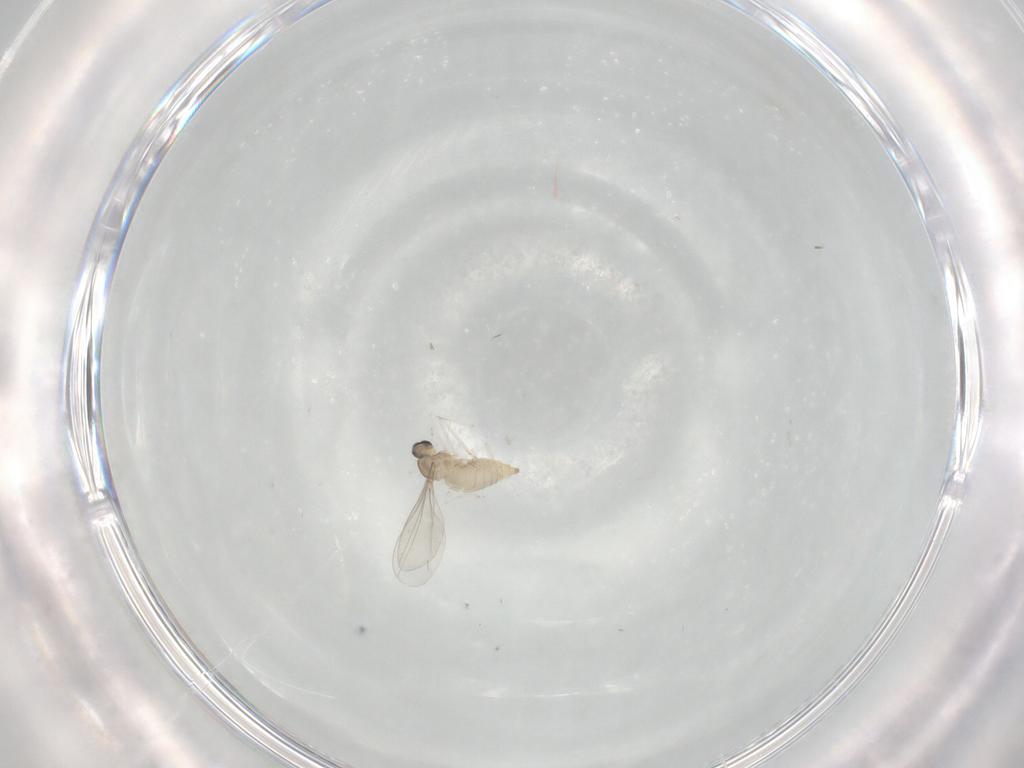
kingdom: Animalia
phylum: Arthropoda
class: Insecta
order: Diptera
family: Cecidomyiidae
